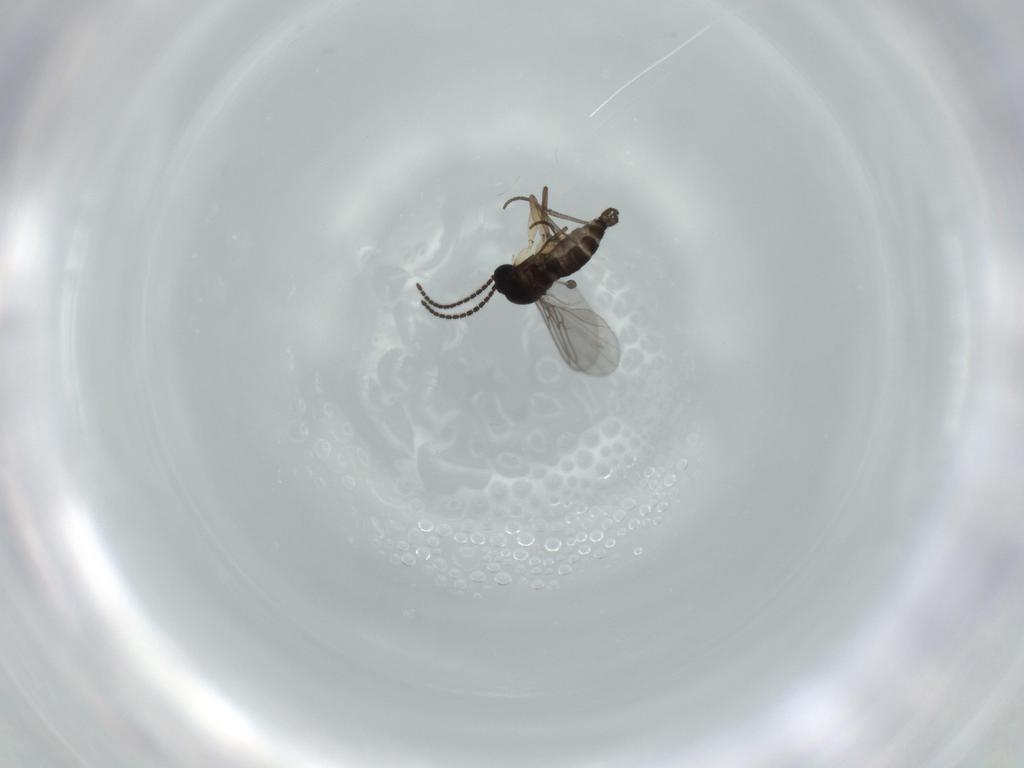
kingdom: Animalia
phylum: Arthropoda
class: Insecta
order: Diptera
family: Sciaridae
